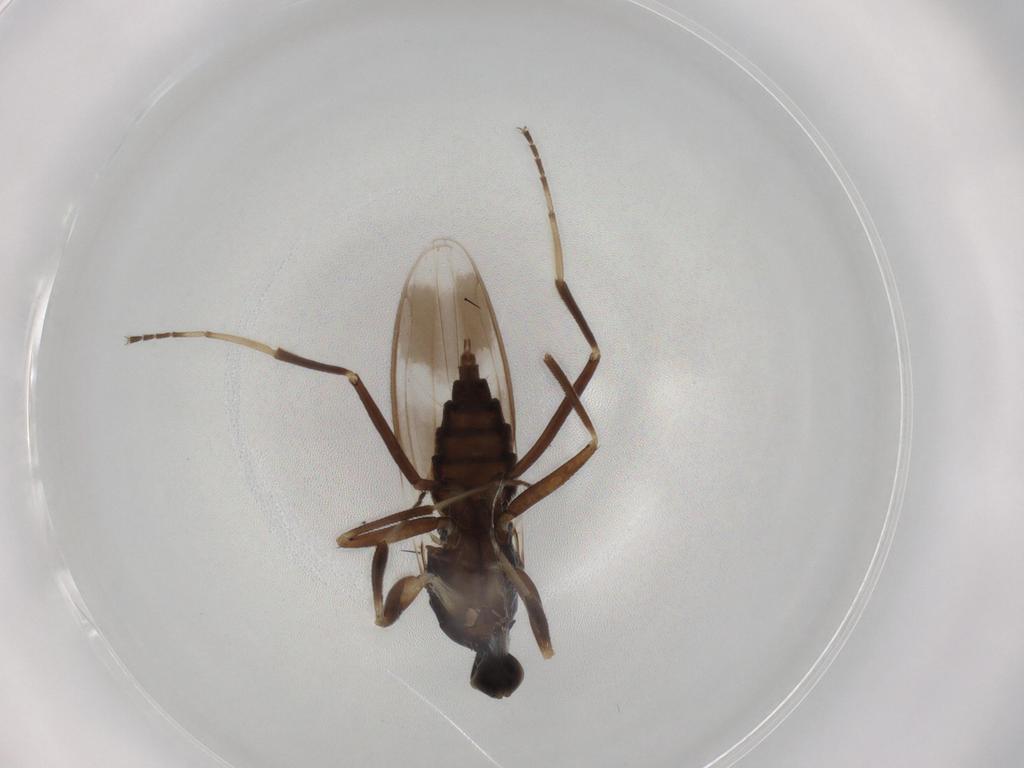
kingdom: Animalia
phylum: Arthropoda
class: Insecta
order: Diptera
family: Hybotidae
